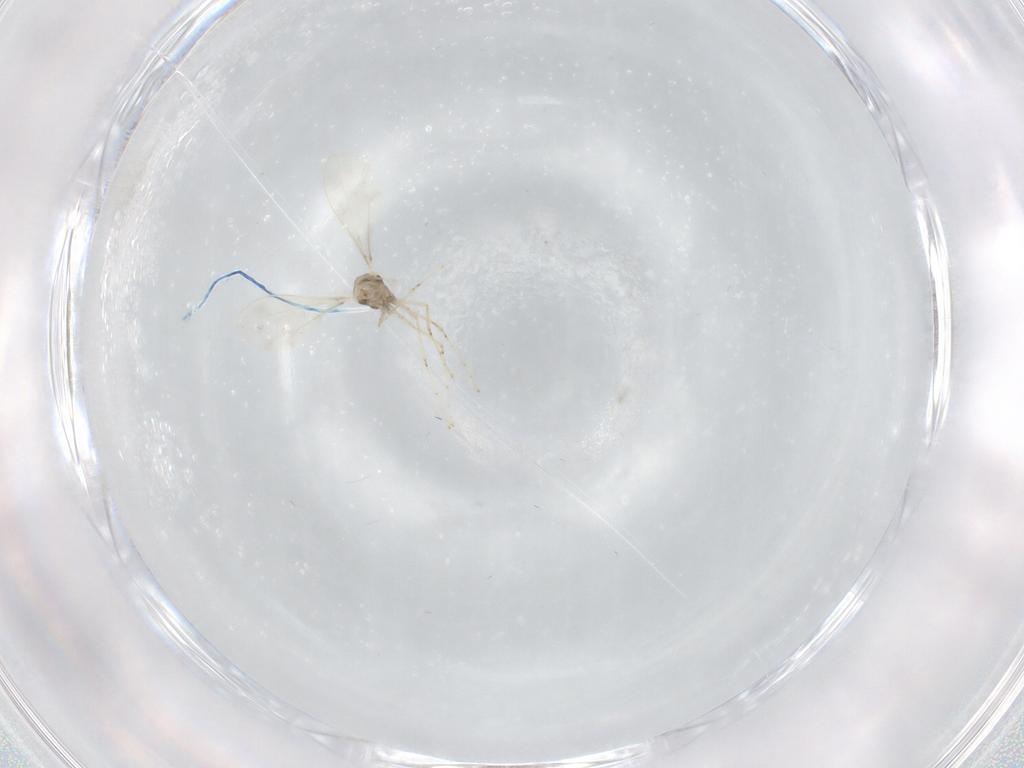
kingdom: Animalia
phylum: Arthropoda
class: Insecta
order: Diptera
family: Cecidomyiidae
